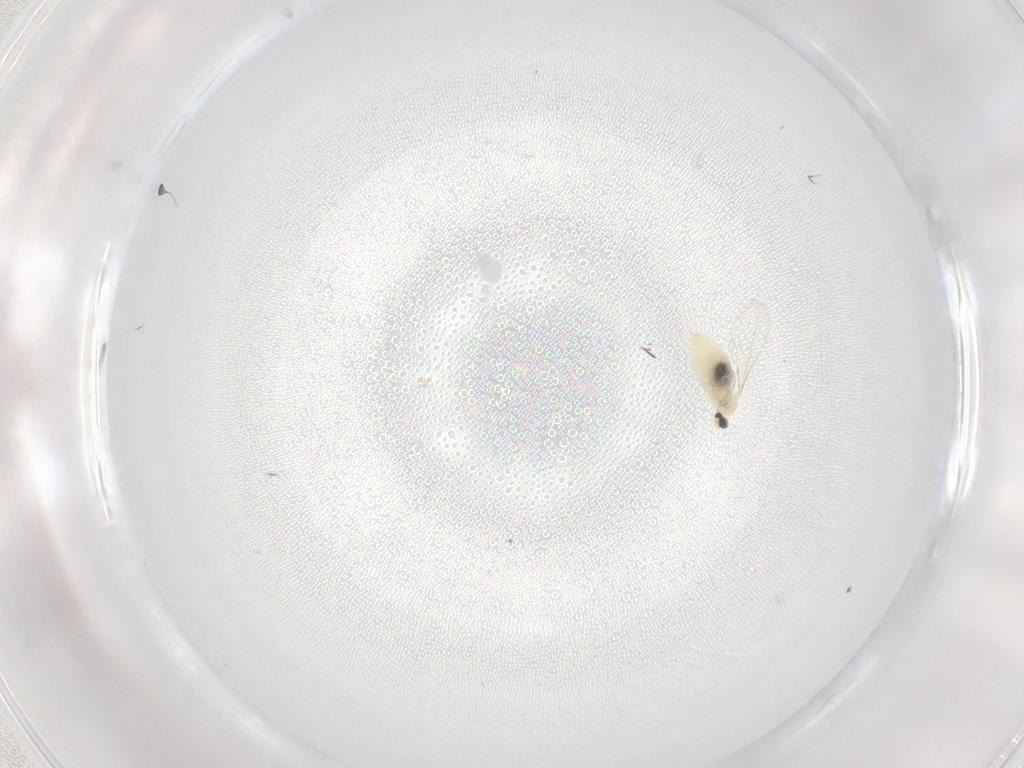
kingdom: Animalia
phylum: Arthropoda
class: Insecta
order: Diptera
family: Cecidomyiidae
